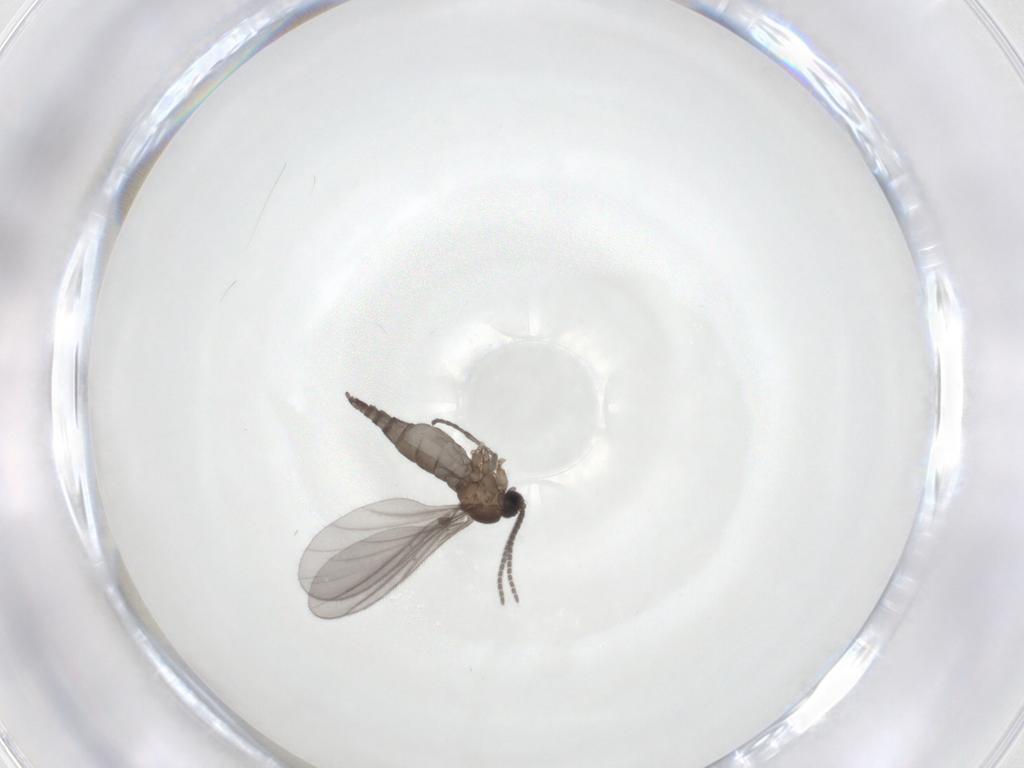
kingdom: Animalia
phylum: Arthropoda
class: Insecta
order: Diptera
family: Sciaridae
